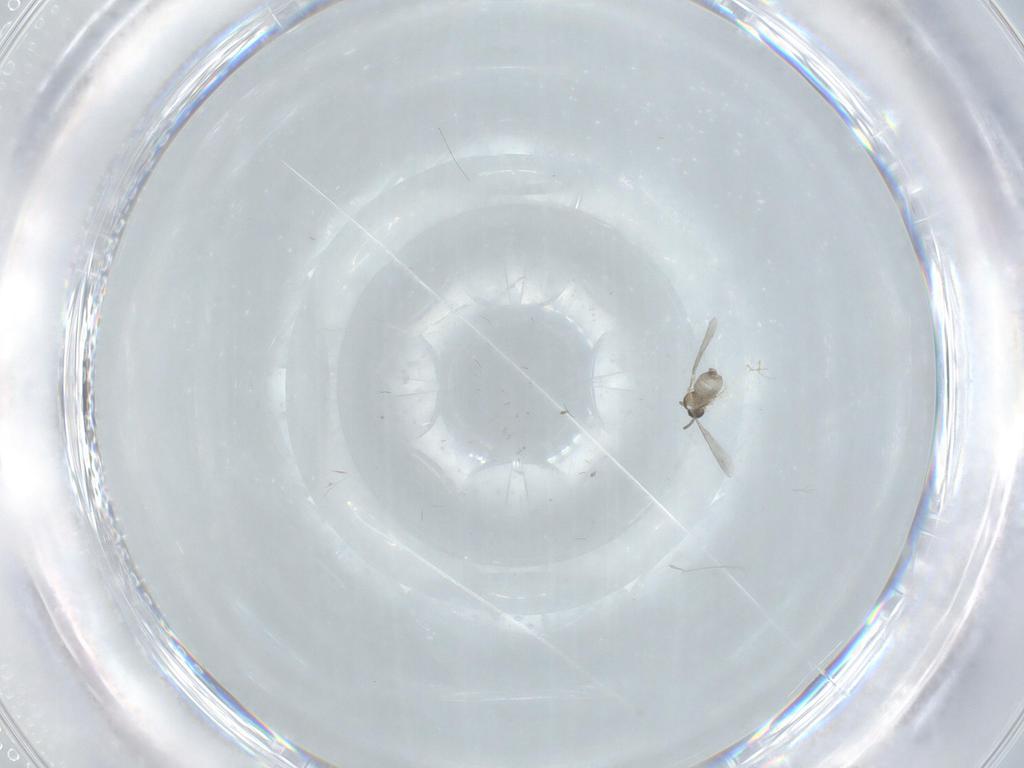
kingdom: Animalia
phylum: Arthropoda
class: Insecta
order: Diptera
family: Cecidomyiidae
